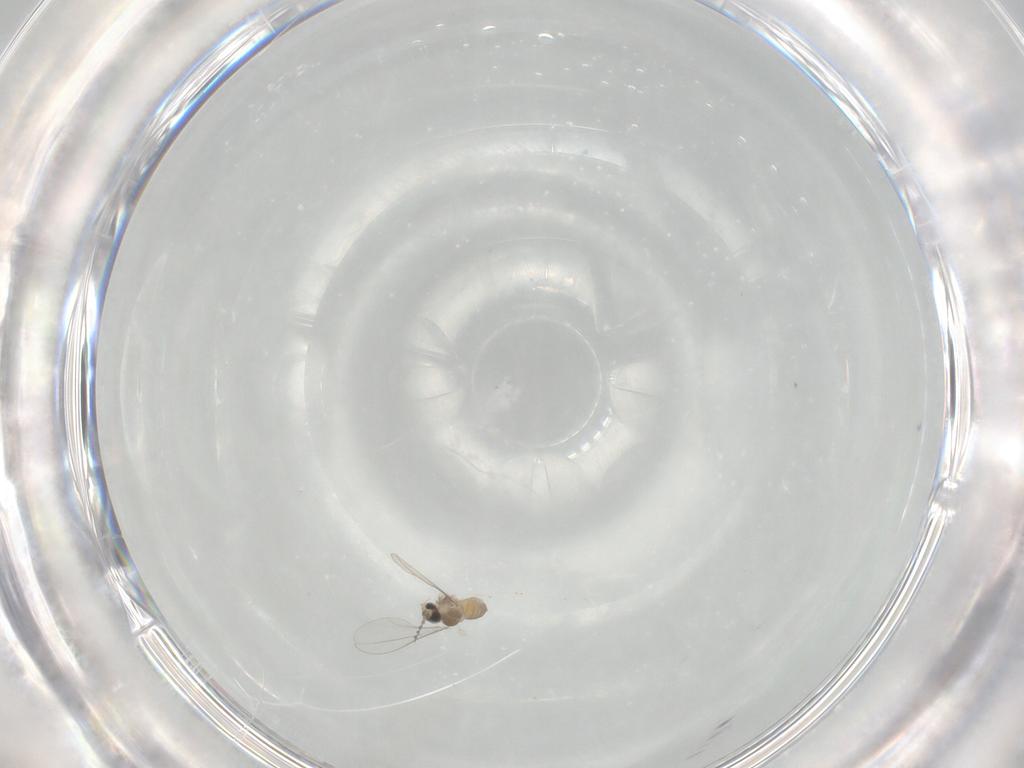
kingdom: Animalia
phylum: Arthropoda
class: Insecta
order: Diptera
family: Cecidomyiidae
